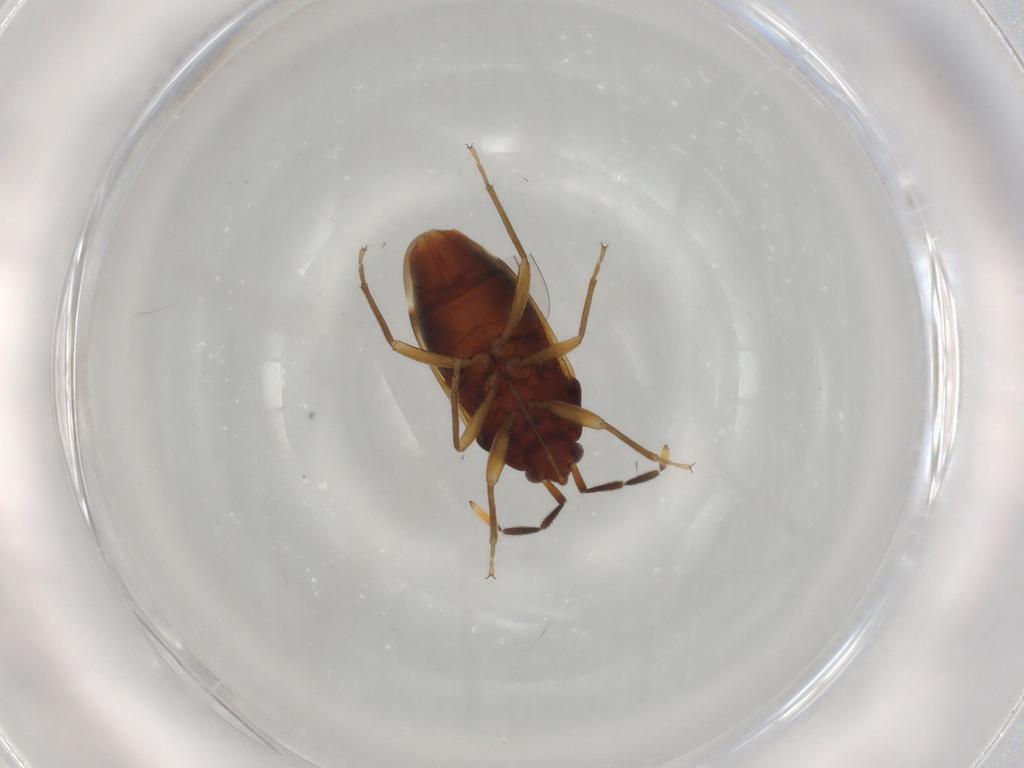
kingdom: Animalia
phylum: Arthropoda
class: Insecta
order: Hemiptera
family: Rhyparochromidae
